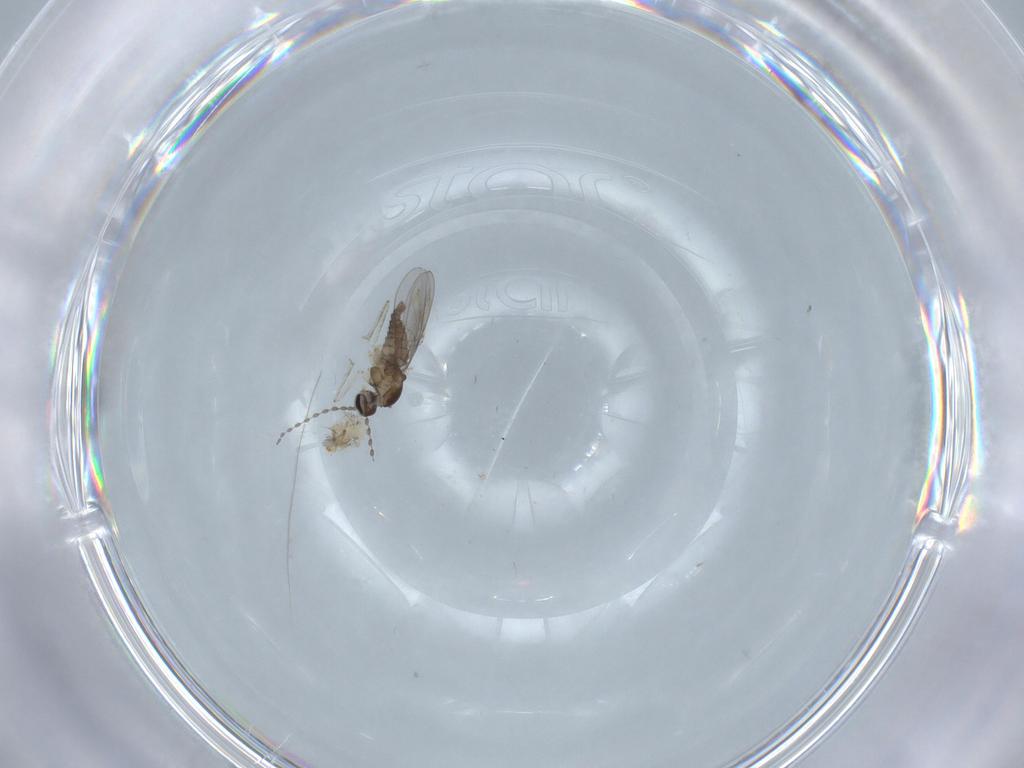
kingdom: Animalia
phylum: Arthropoda
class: Insecta
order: Diptera
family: Cecidomyiidae
